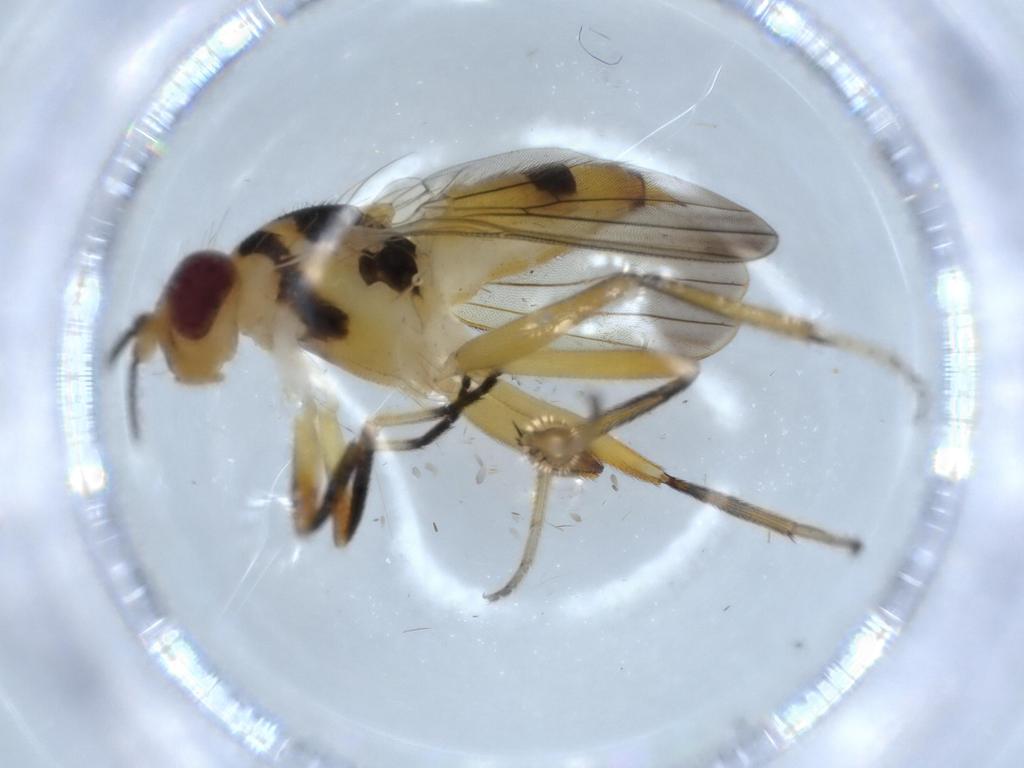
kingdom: Animalia
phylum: Arthropoda
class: Insecta
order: Diptera
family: Clusiidae
